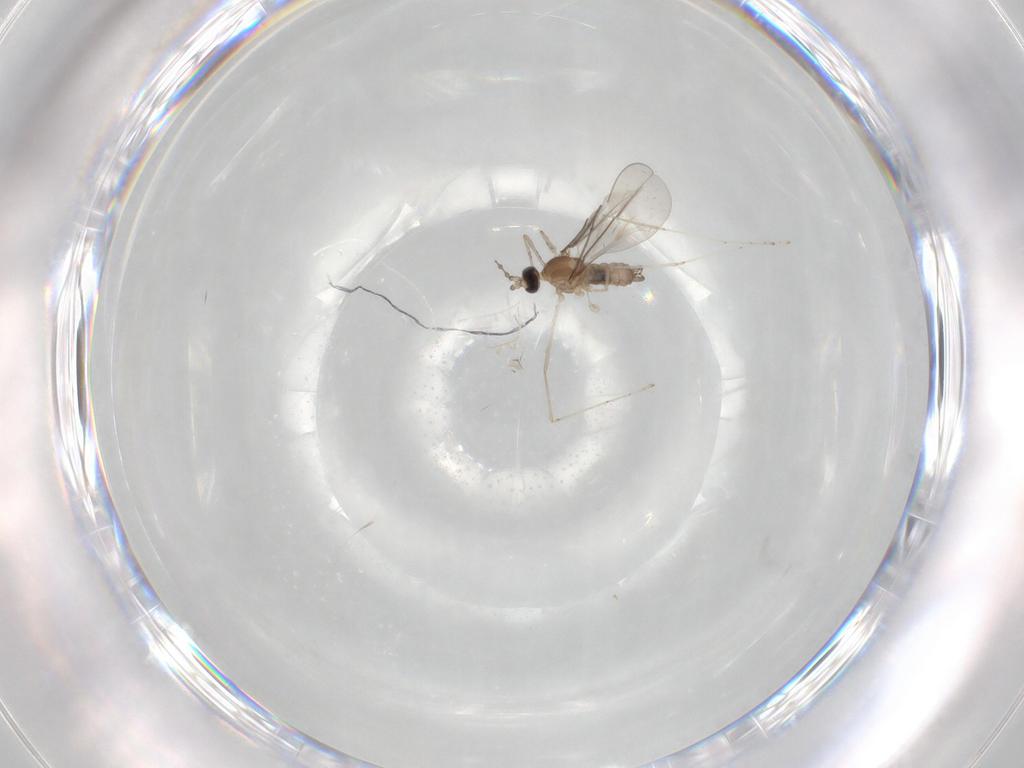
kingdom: Animalia
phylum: Arthropoda
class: Insecta
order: Diptera
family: Cecidomyiidae
